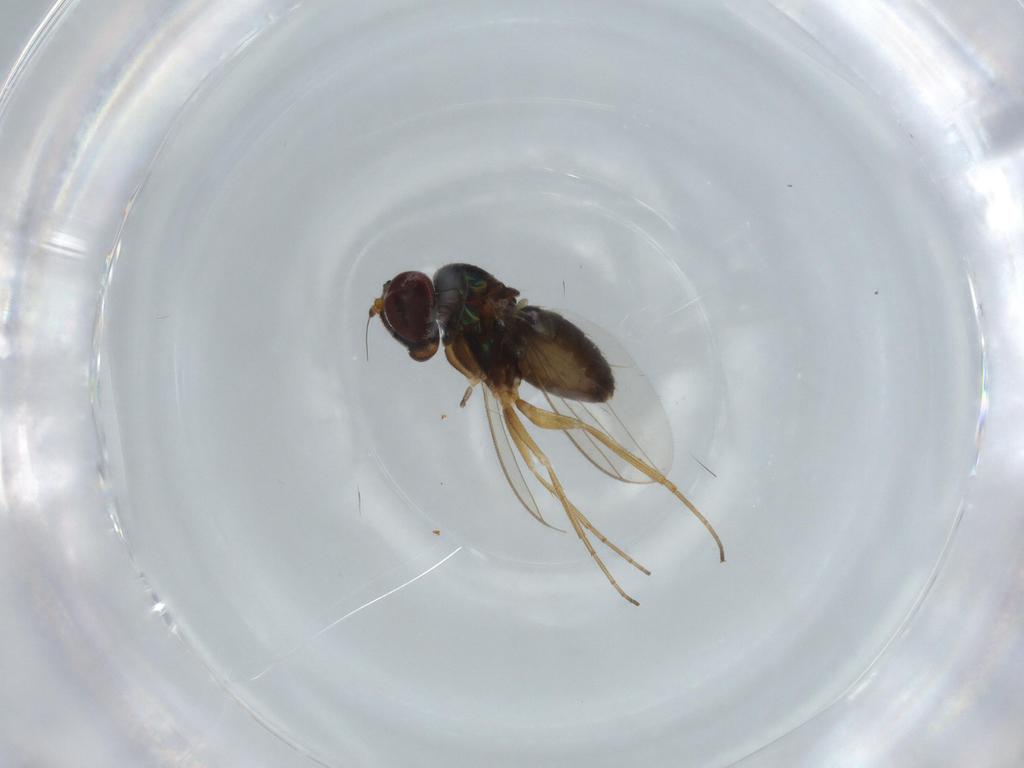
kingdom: Animalia
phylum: Arthropoda
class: Insecta
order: Diptera
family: Sciaridae
